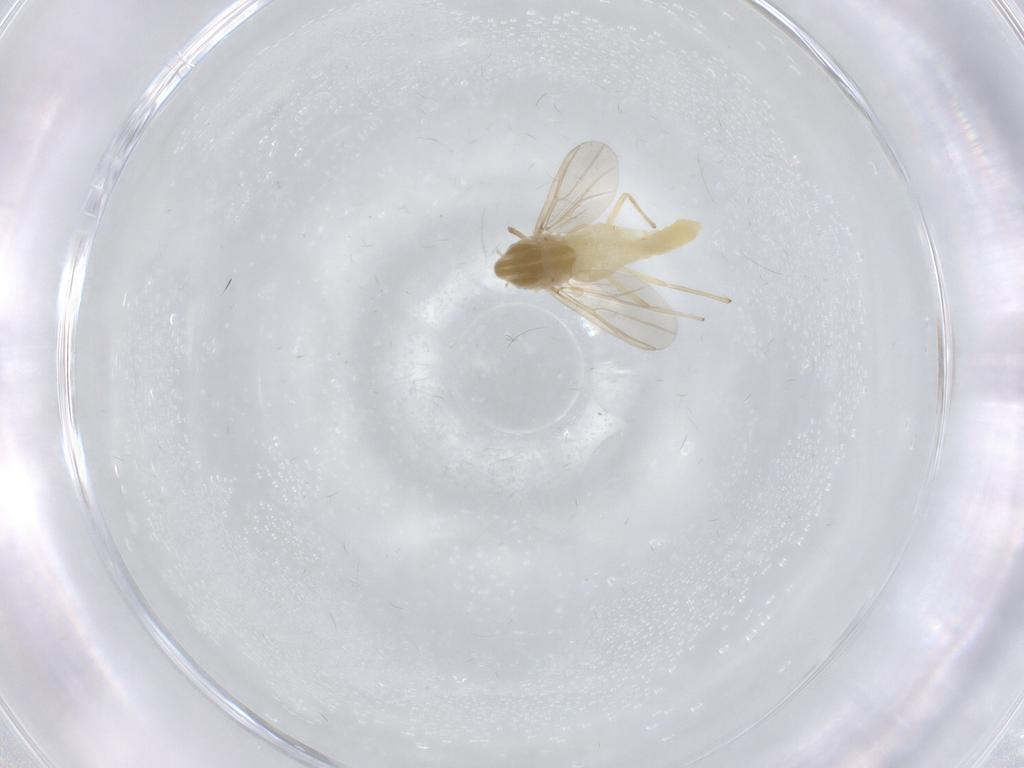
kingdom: Animalia
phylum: Arthropoda
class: Insecta
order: Diptera
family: Chironomidae
